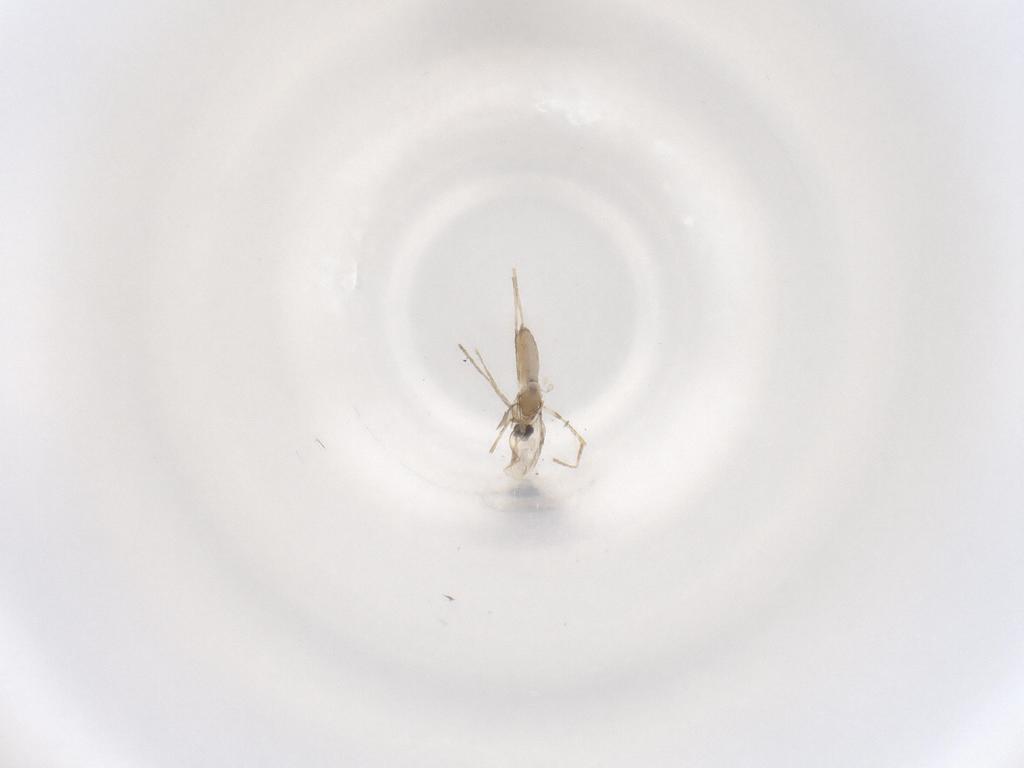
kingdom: Animalia
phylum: Arthropoda
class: Insecta
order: Diptera
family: Cecidomyiidae
